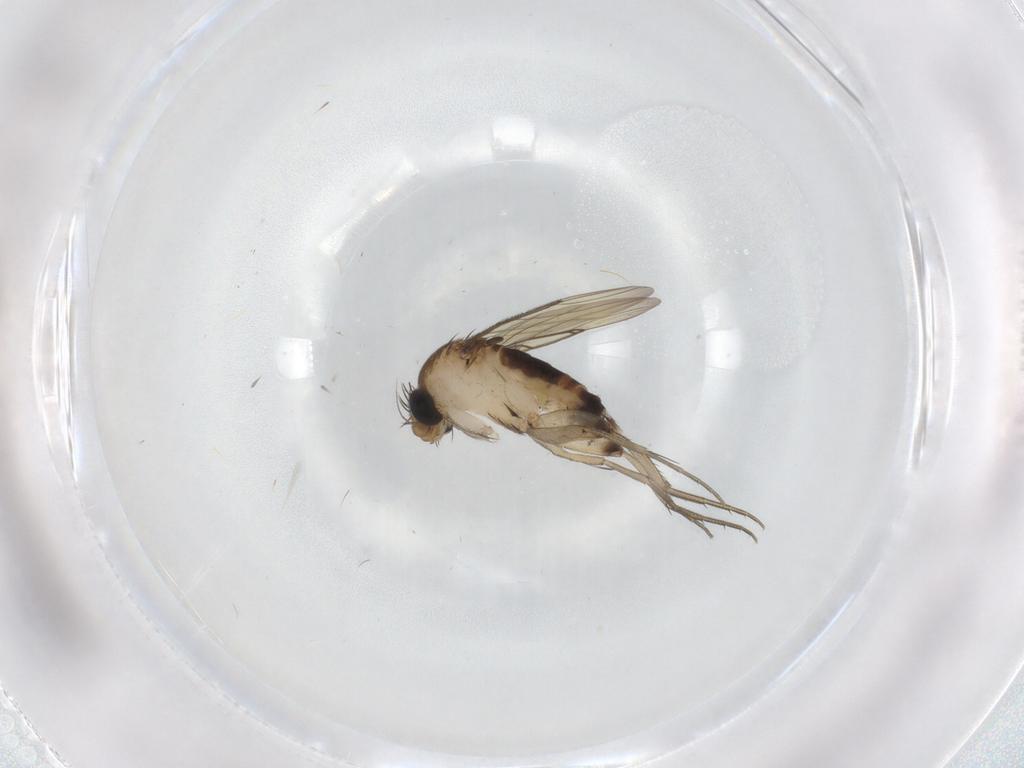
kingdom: Animalia
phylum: Arthropoda
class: Insecta
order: Diptera
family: Phoridae
